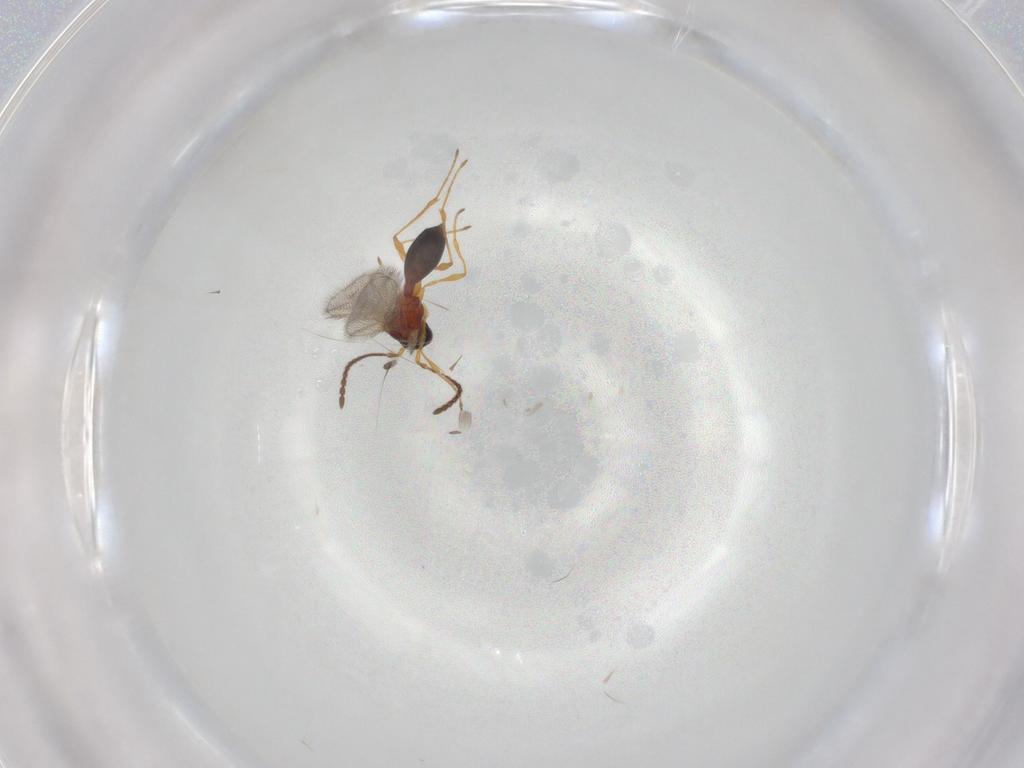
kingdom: Animalia
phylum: Arthropoda
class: Insecta
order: Hymenoptera
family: Eulophidae
